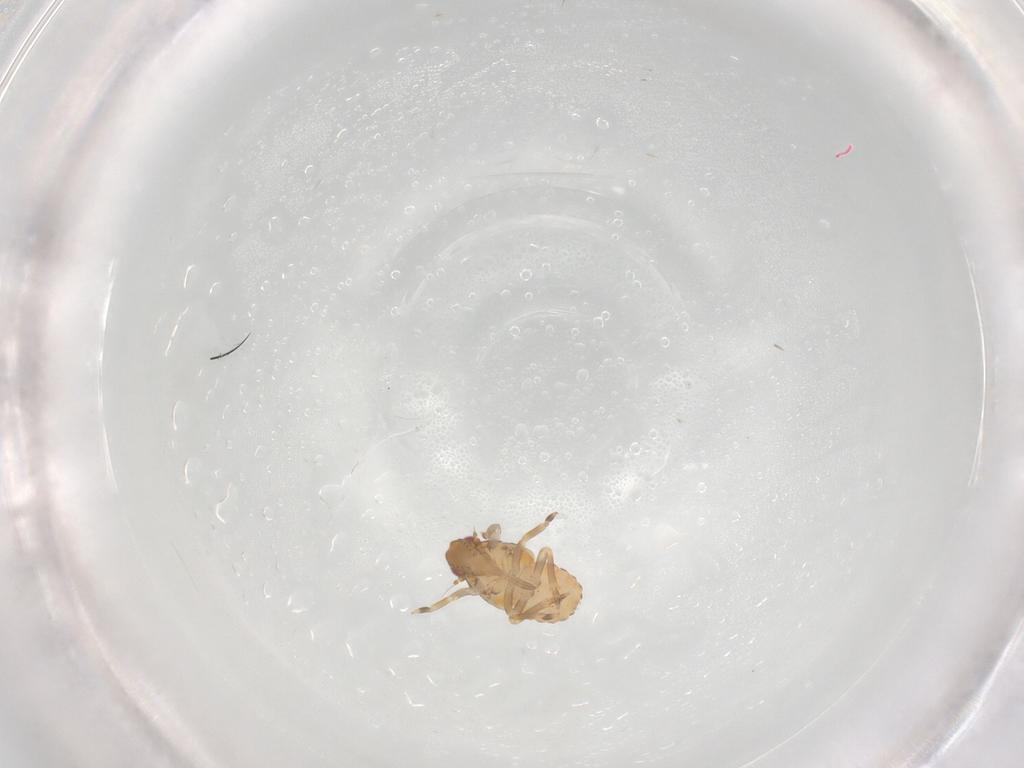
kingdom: Animalia
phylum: Arthropoda
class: Insecta
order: Hemiptera
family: Flatidae
